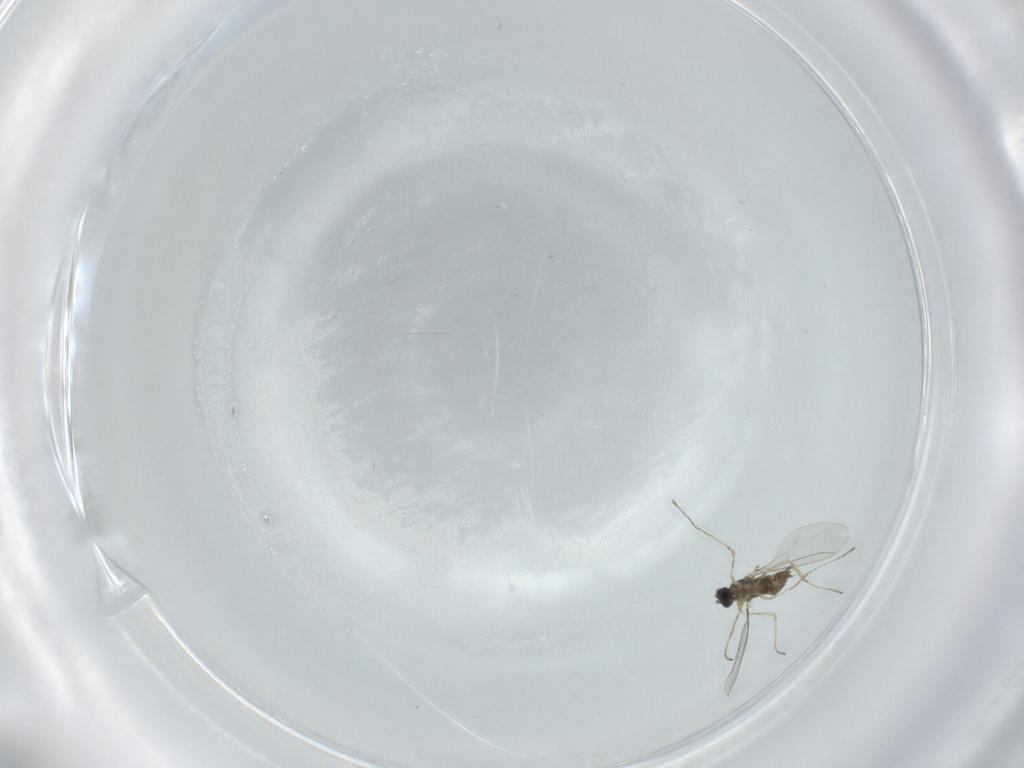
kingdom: Animalia
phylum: Arthropoda
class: Insecta
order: Diptera
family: Cecidomyiidae
